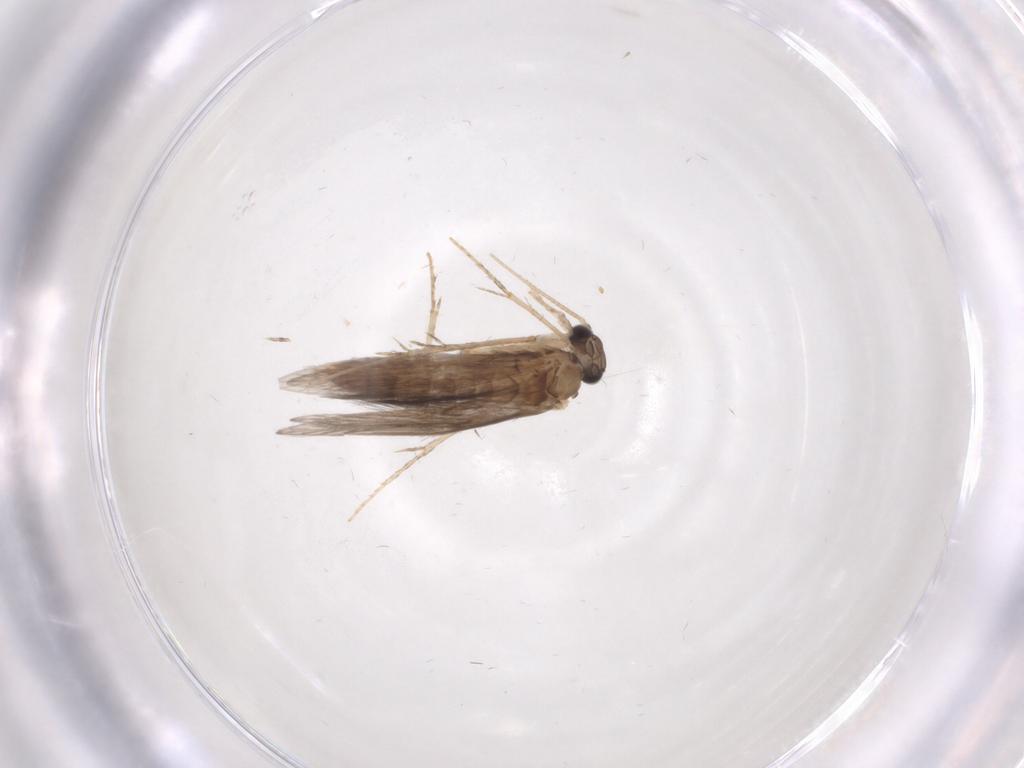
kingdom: Animalia
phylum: Arthropoda
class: Insecta
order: Trichoptera
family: Hydroptilidae
